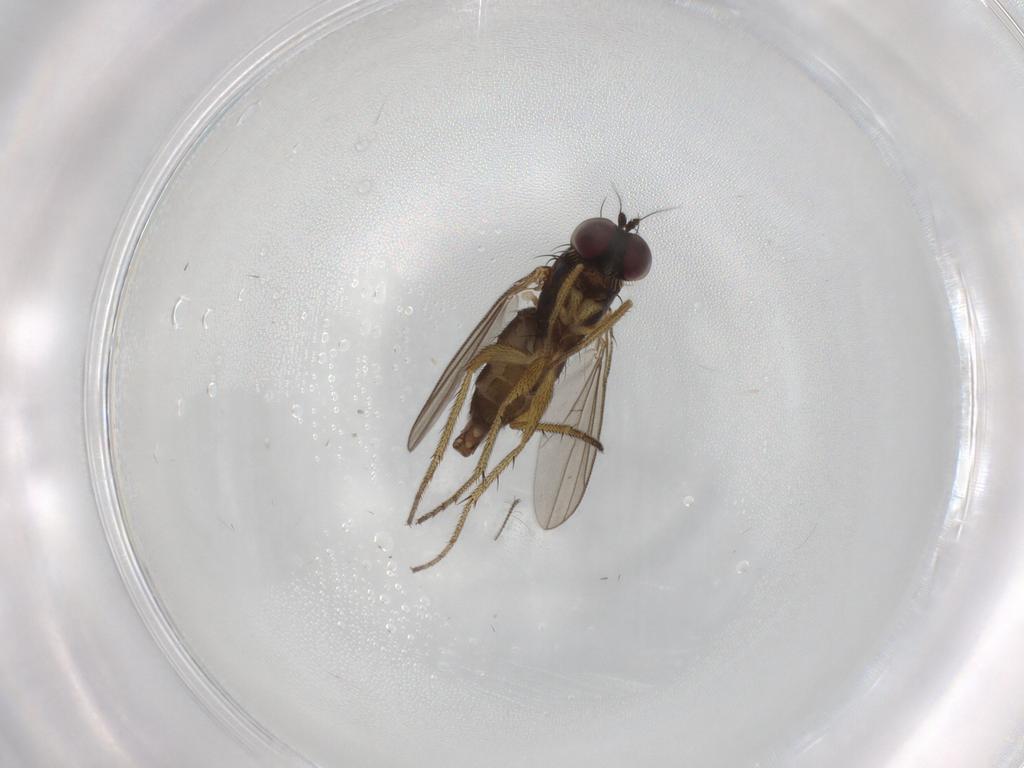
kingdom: Animalia
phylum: Arthropoda
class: Insecta
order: Diptera
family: Dolichopodidae
